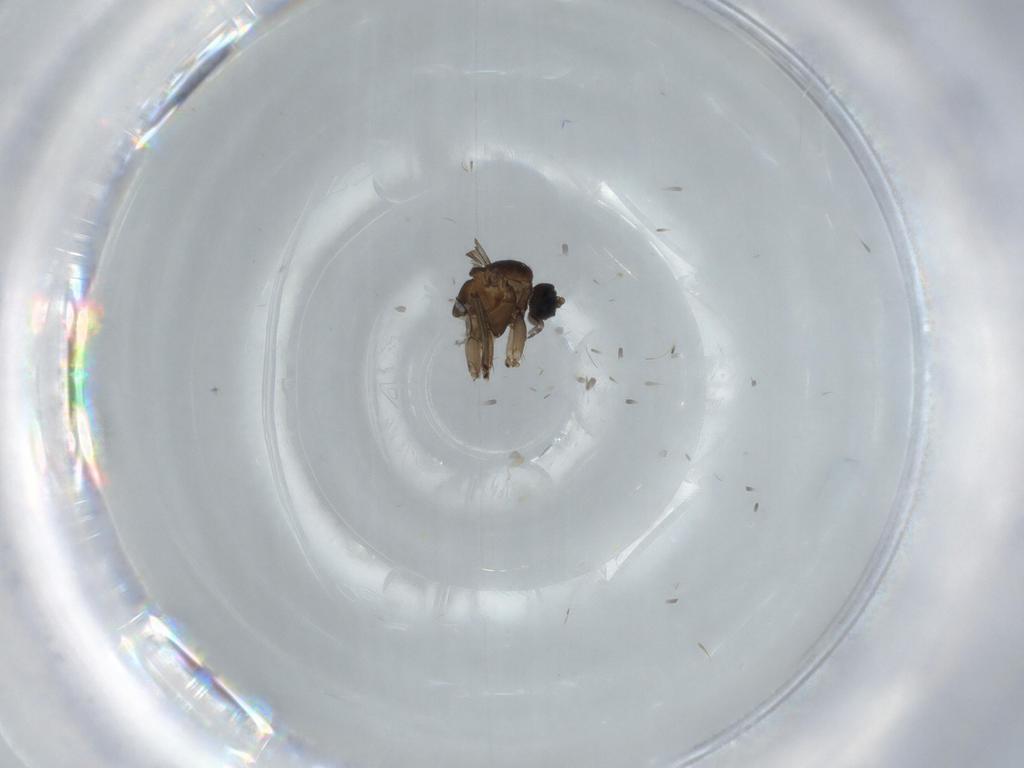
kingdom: Animalia
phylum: Arthropoda
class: Insecta
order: Diptera
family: Sciaridae
